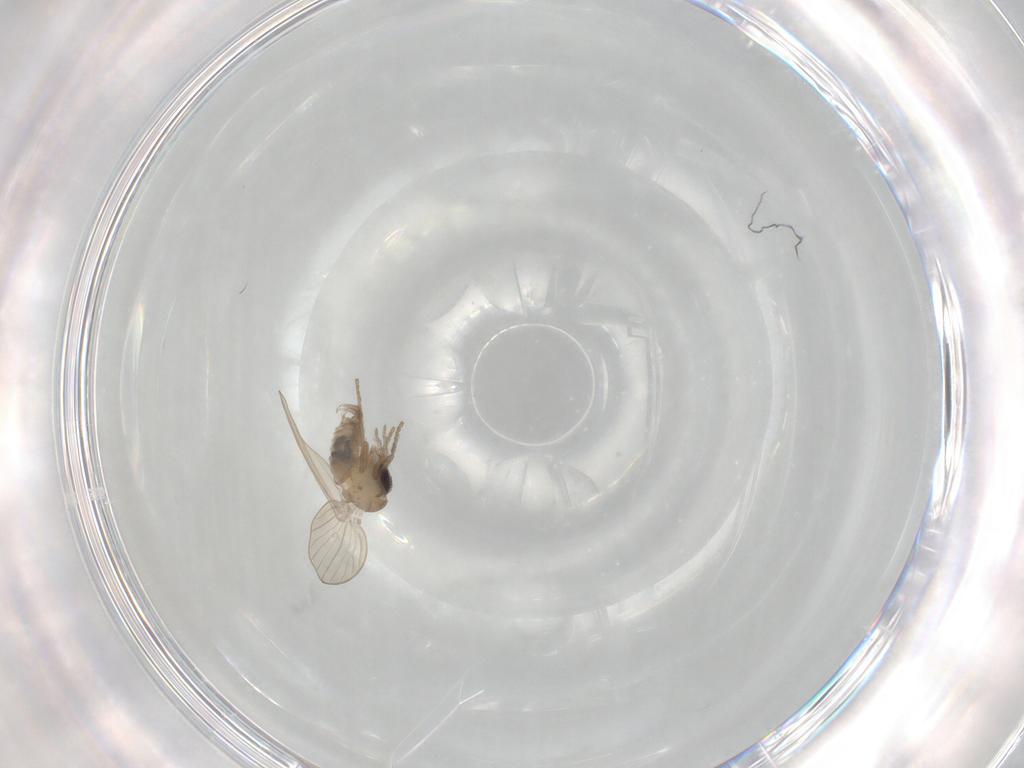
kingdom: Animalia
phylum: Arthropoda
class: Insecta
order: Diptera
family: Psychodidae
